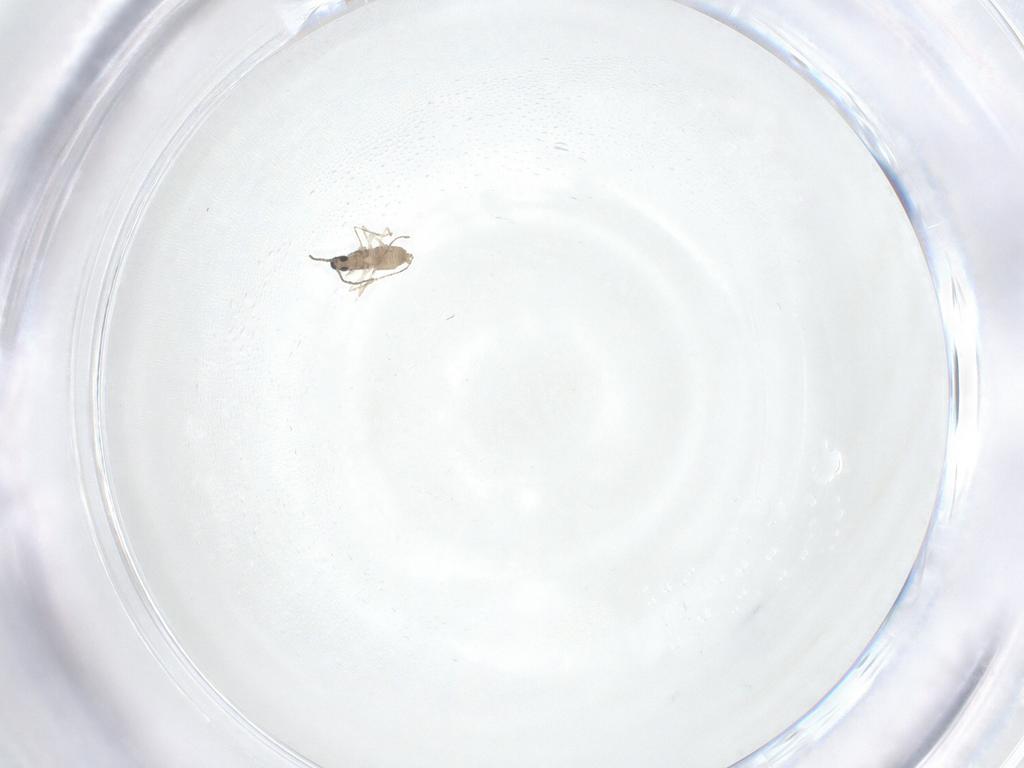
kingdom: Animalia
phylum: Arthropoda
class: Insecta
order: Diptera
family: Cecidomyiidae
